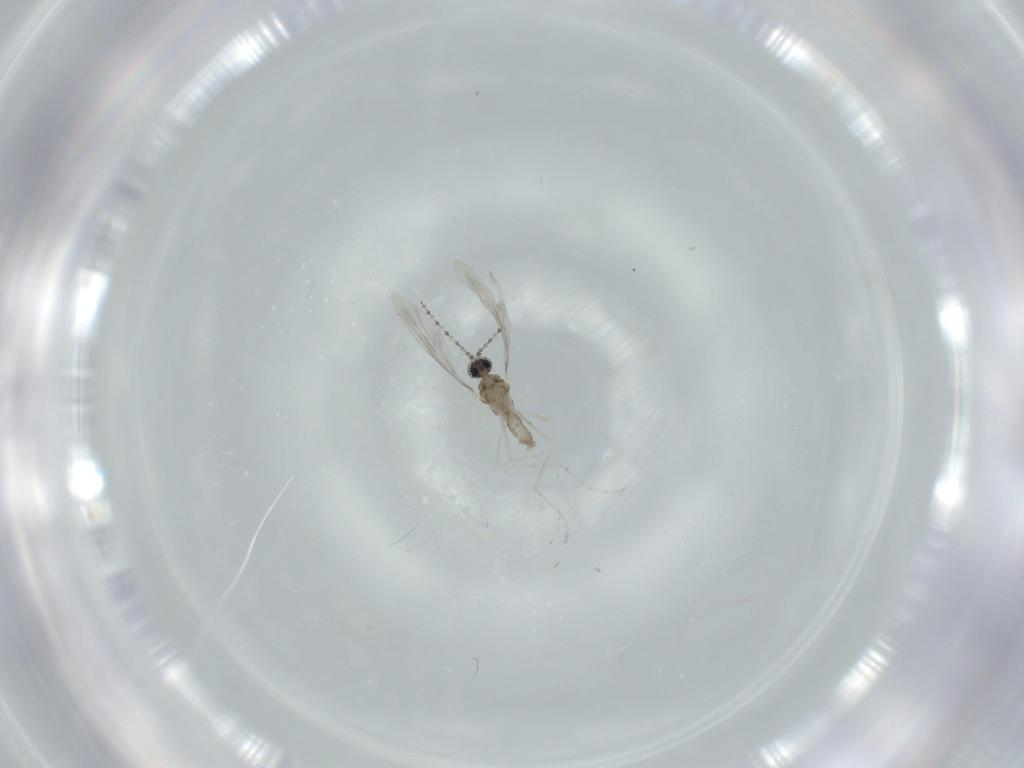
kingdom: Animalia
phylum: Arthropoda
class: Insecta
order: Diptera
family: Cecidomyiidae
